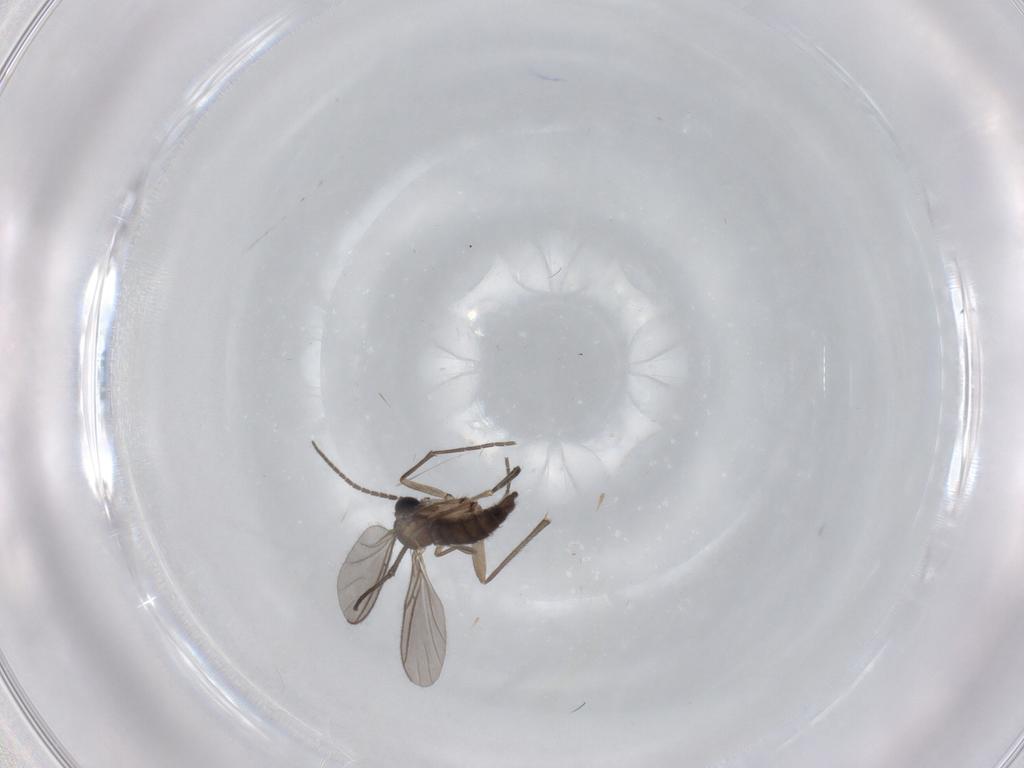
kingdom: Animalia
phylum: Arthropoda
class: Insecta
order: Diptera
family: Sciaridae
